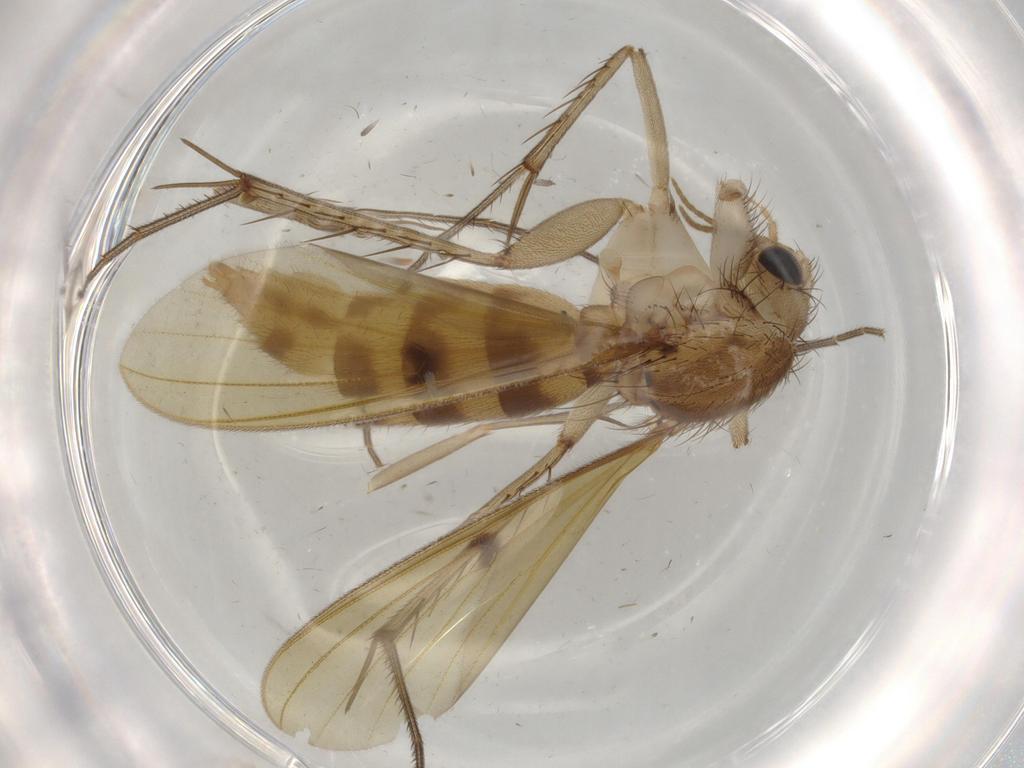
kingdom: Animalia
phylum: Arthropoda
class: Insecta
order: Diptera
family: Mycetophilidae
